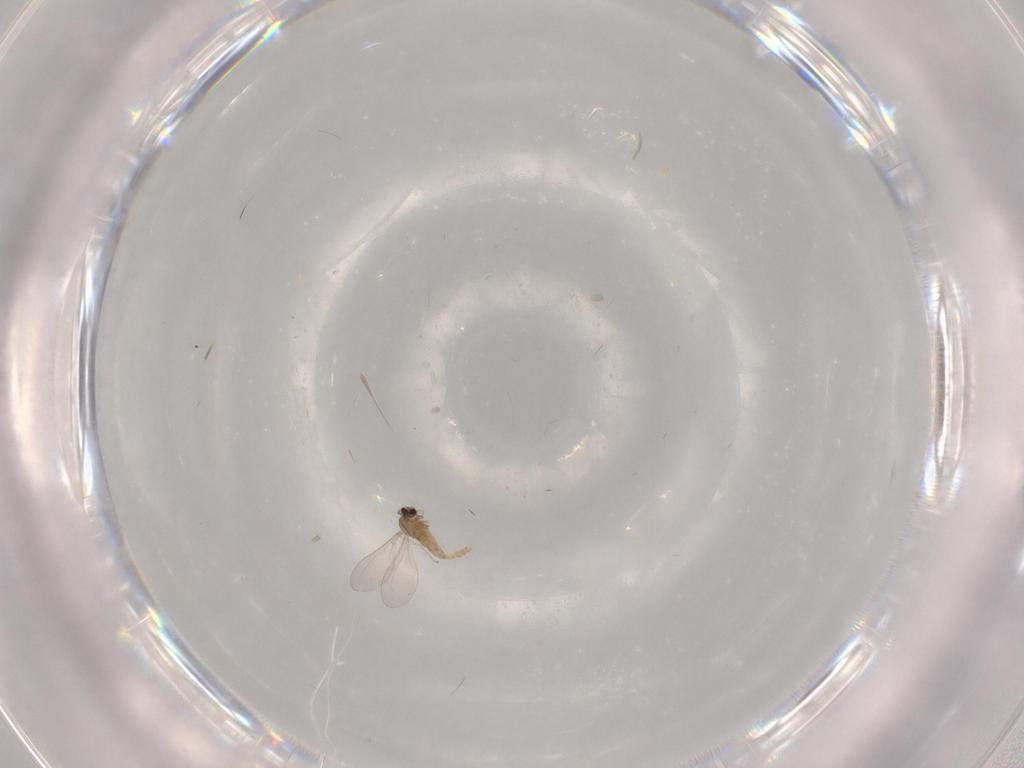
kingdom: Animalia
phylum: Arthropoda
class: Insecta
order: Diptera
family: Cecidomyiidae
